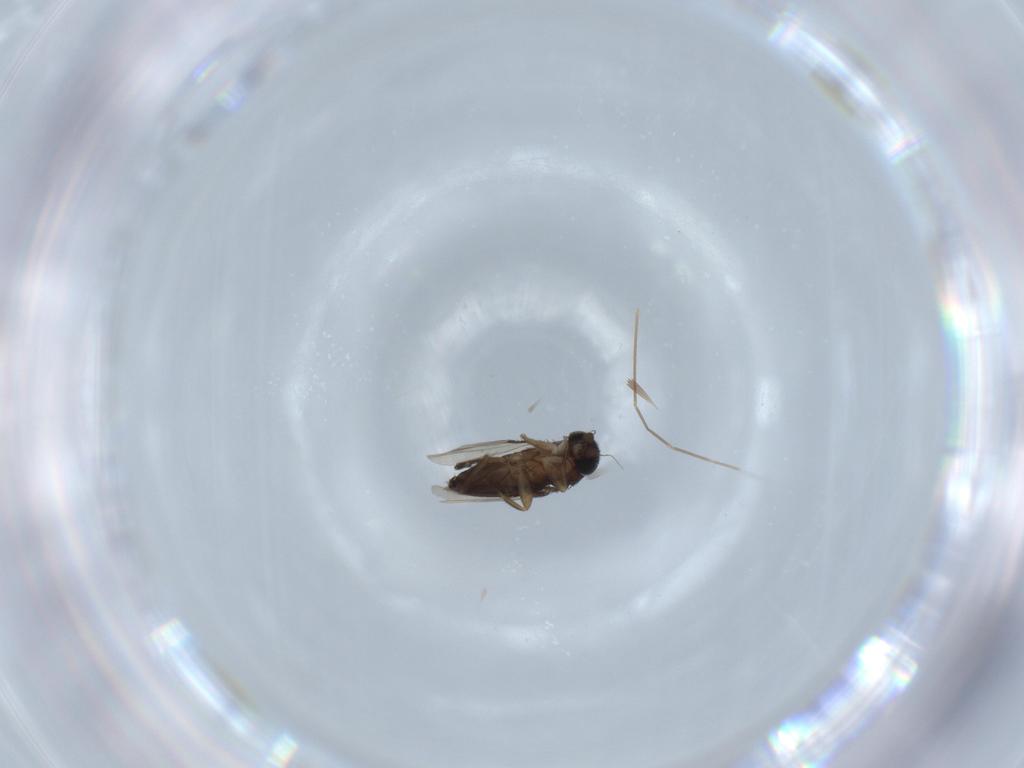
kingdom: Animalia
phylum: Arthropoda
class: Insecta
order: Diptera
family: Phoridae
